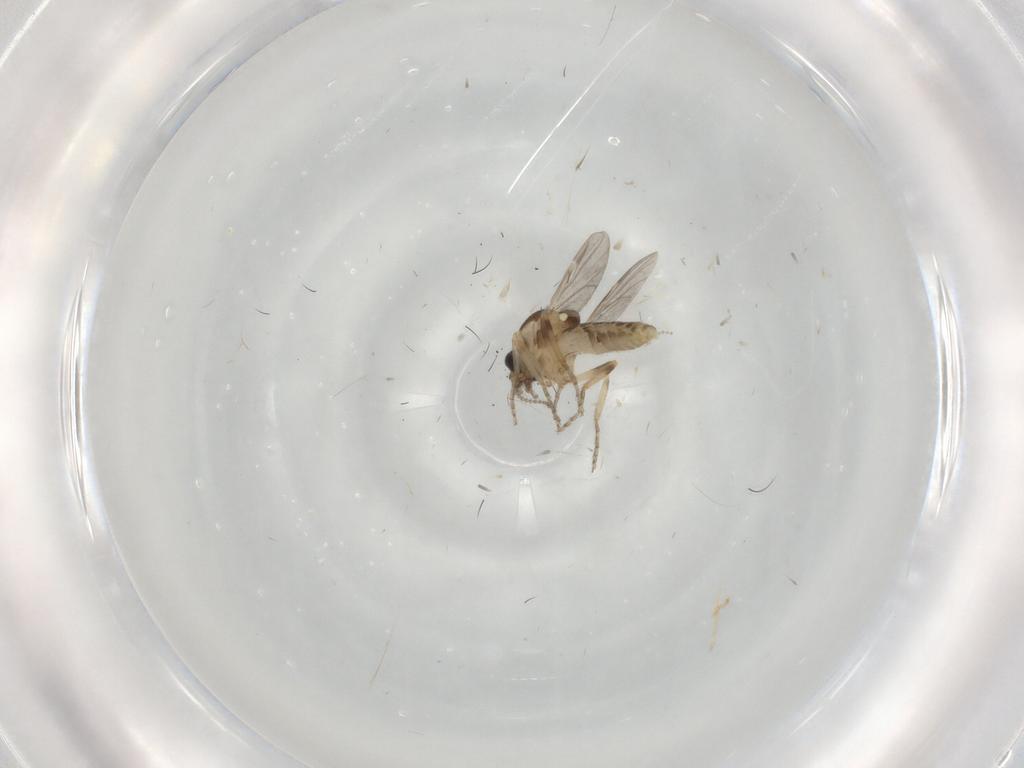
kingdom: Animalia
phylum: Arthropoda
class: Insecta
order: Diptera
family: Ceratopogonidae
